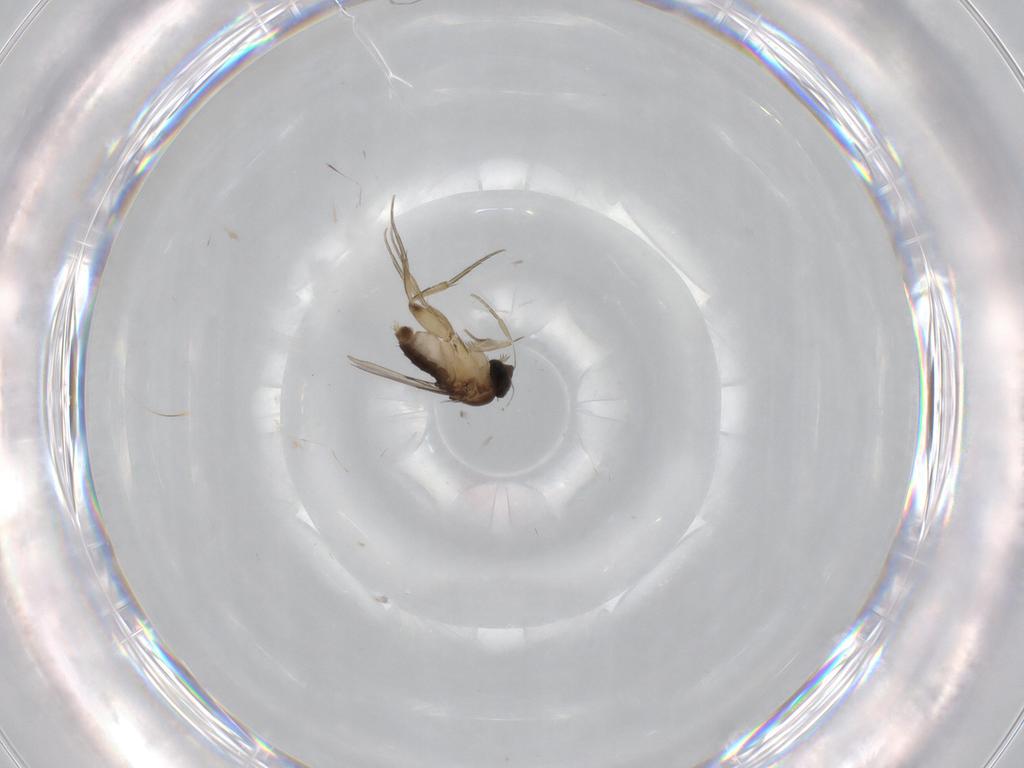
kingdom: Animalia
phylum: Arthropoda
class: Insecta
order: Diptera
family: Phoridae
